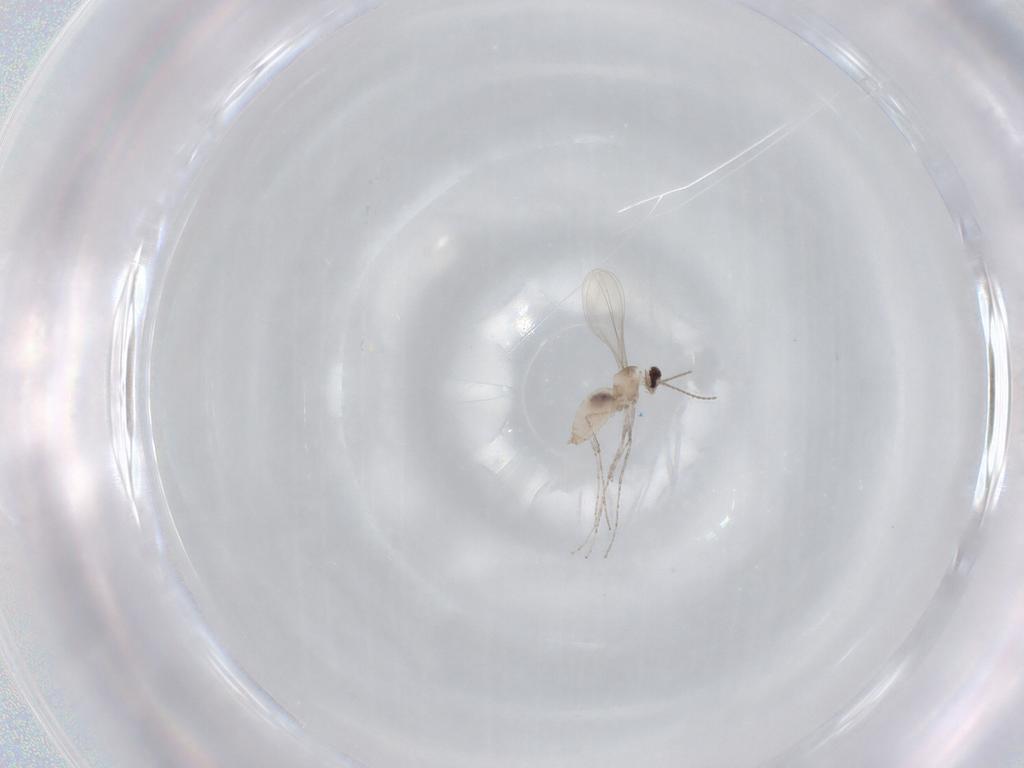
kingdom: Animalia
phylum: Arthropoda
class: Insecta
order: Diptera
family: Cecidomyiidae
